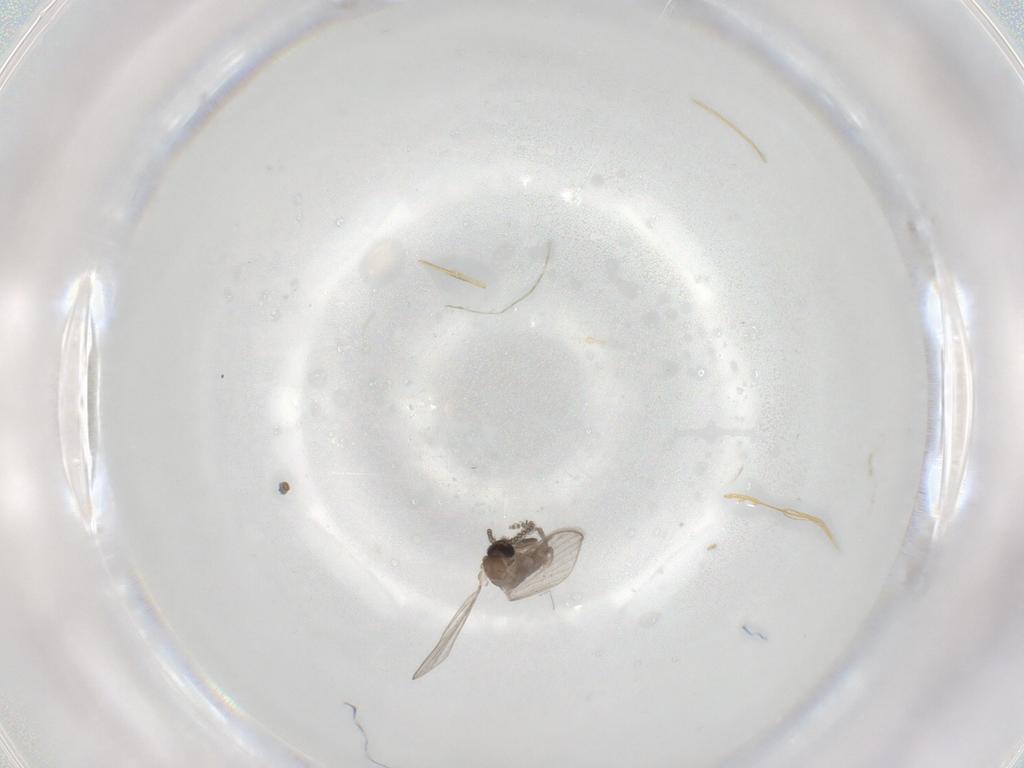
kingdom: Animalia
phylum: Arthropoda
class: Insecta
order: Diptera
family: Psychodidae
